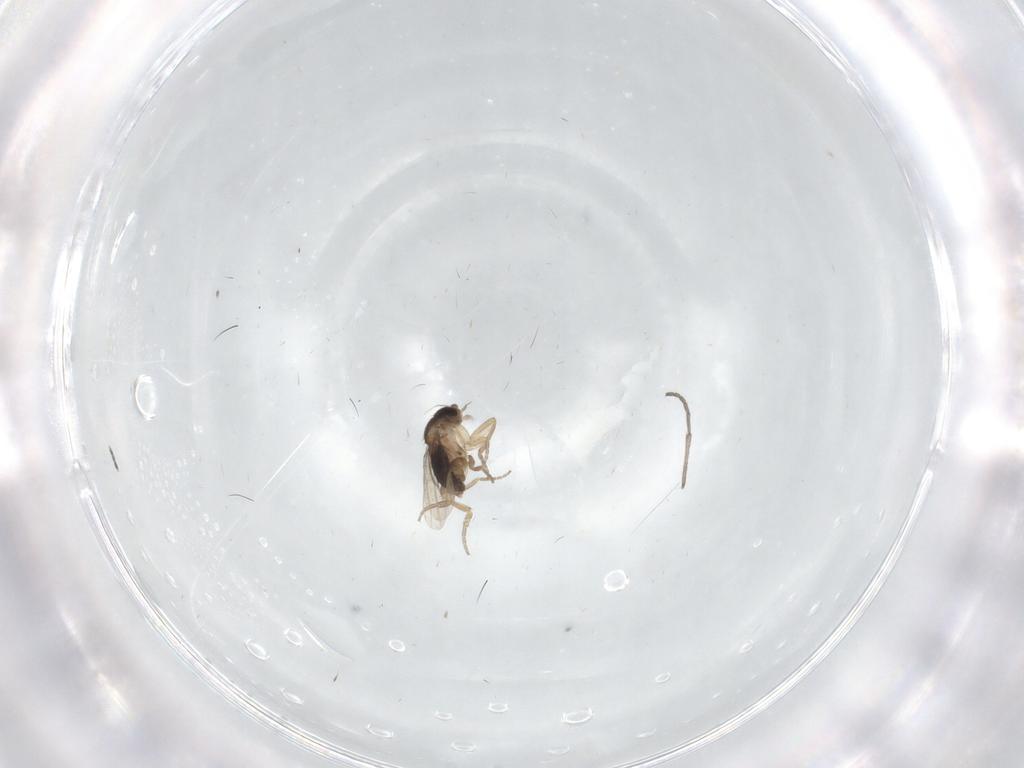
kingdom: Animalia
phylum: Arthropoda
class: Insecta
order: Diptera
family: Sciaridae
